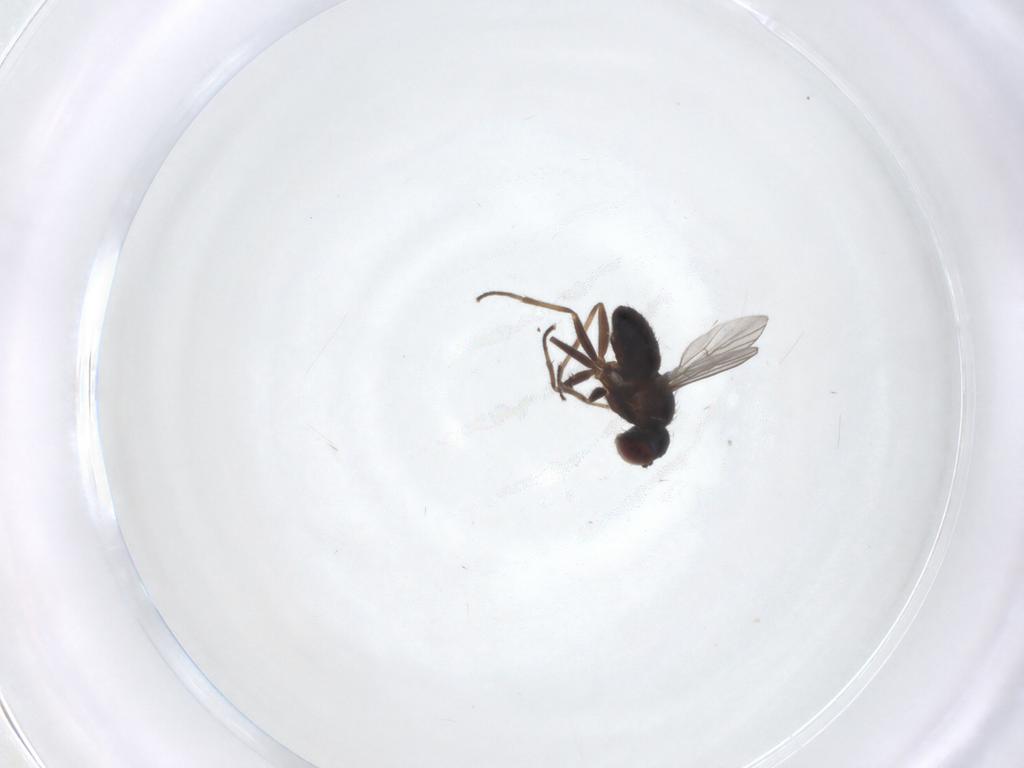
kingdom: Animalia
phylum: Arthropoda
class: Insecta
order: Diptera
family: Dolichopodidae
